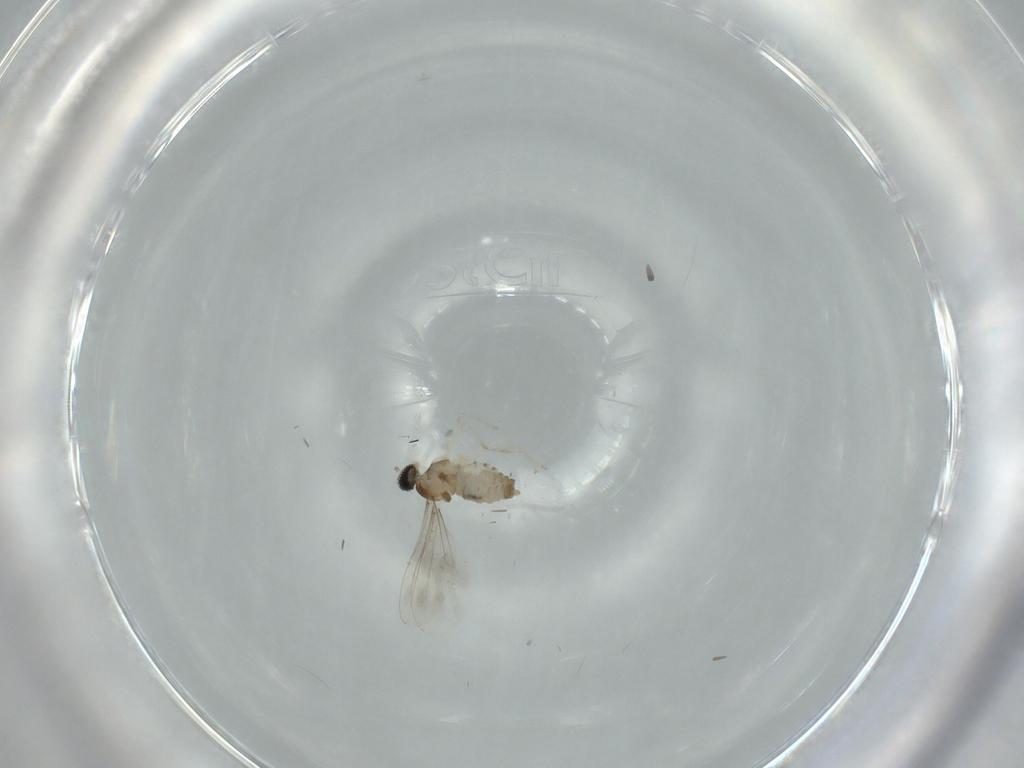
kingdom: Animalia
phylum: Arthropoda
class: Insecta
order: Diptera
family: Cecidomyiidae
